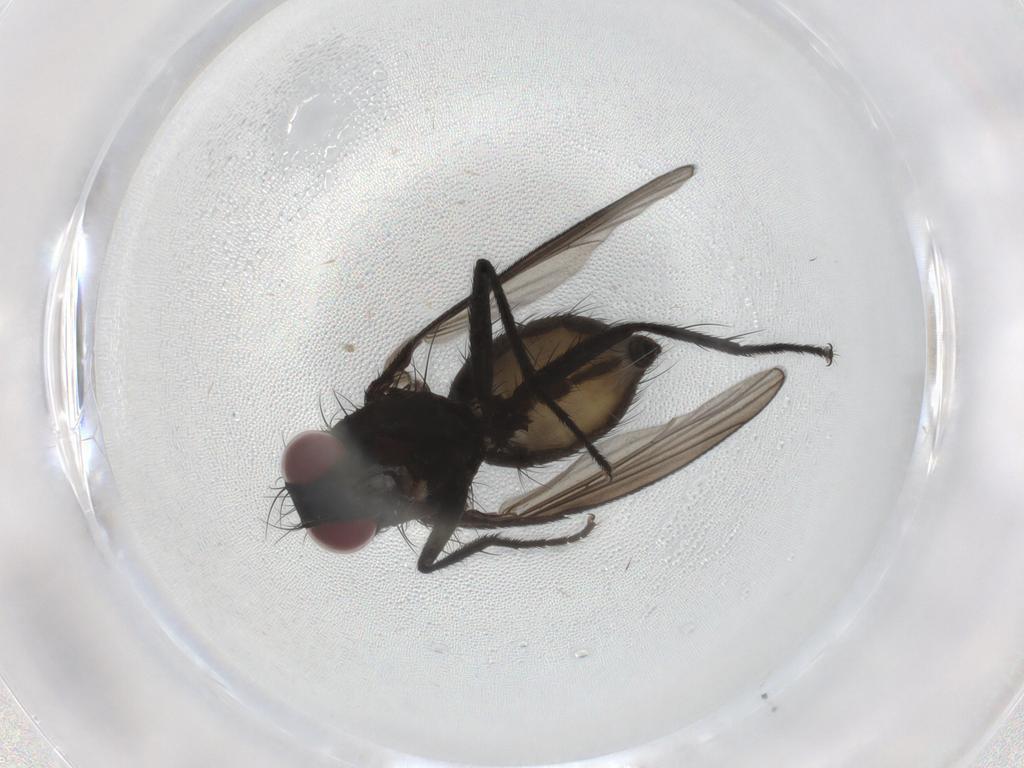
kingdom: Animalia
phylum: Arthropoda
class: Insecta
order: Diptera
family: Muscidae
